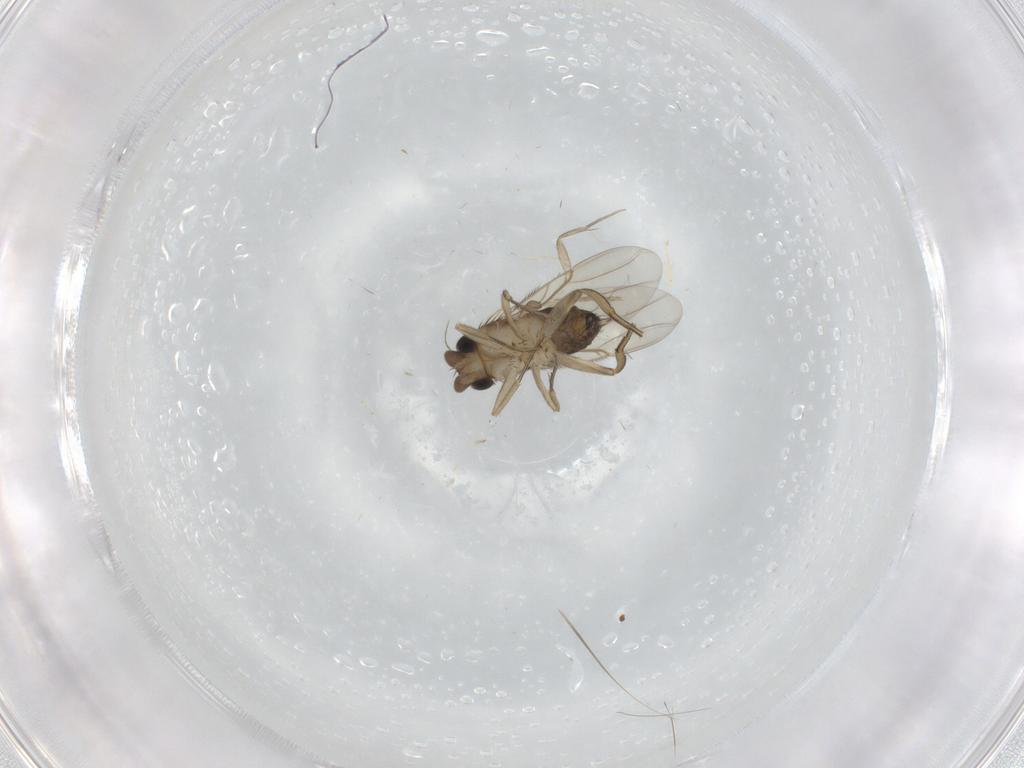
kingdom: Animalia
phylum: Arthropoda
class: Insecta
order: Diptera
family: Phoridae
